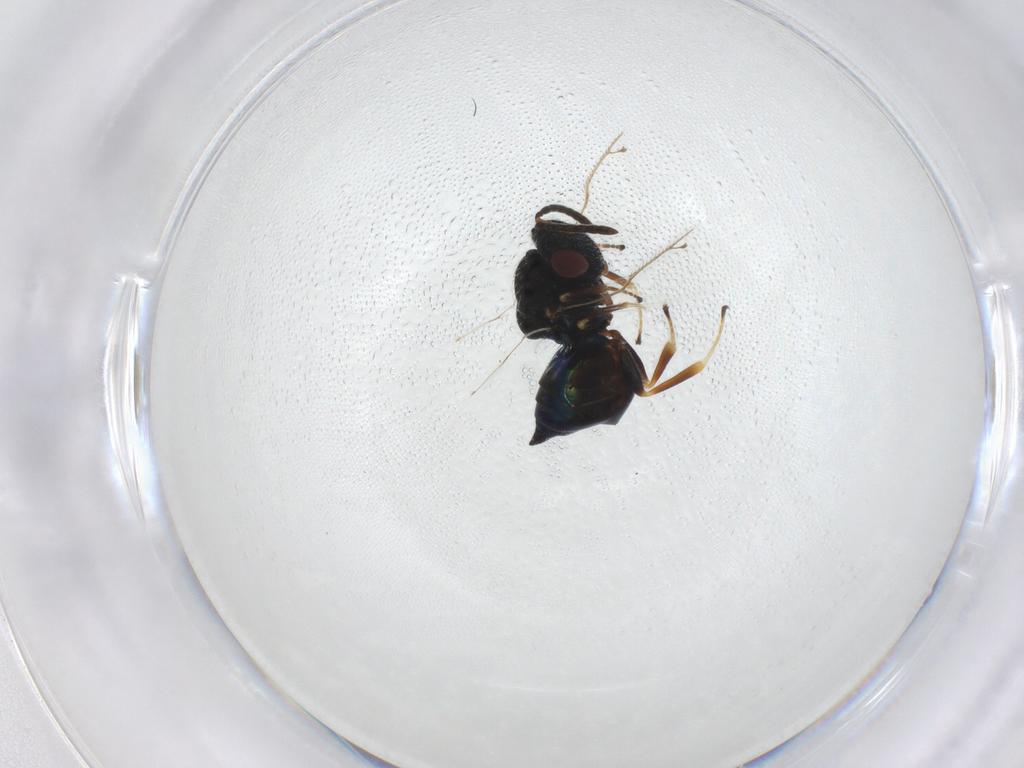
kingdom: Animalia
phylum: Arthropoda
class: Insecta
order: Hymenoptera
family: Pteromalidae
